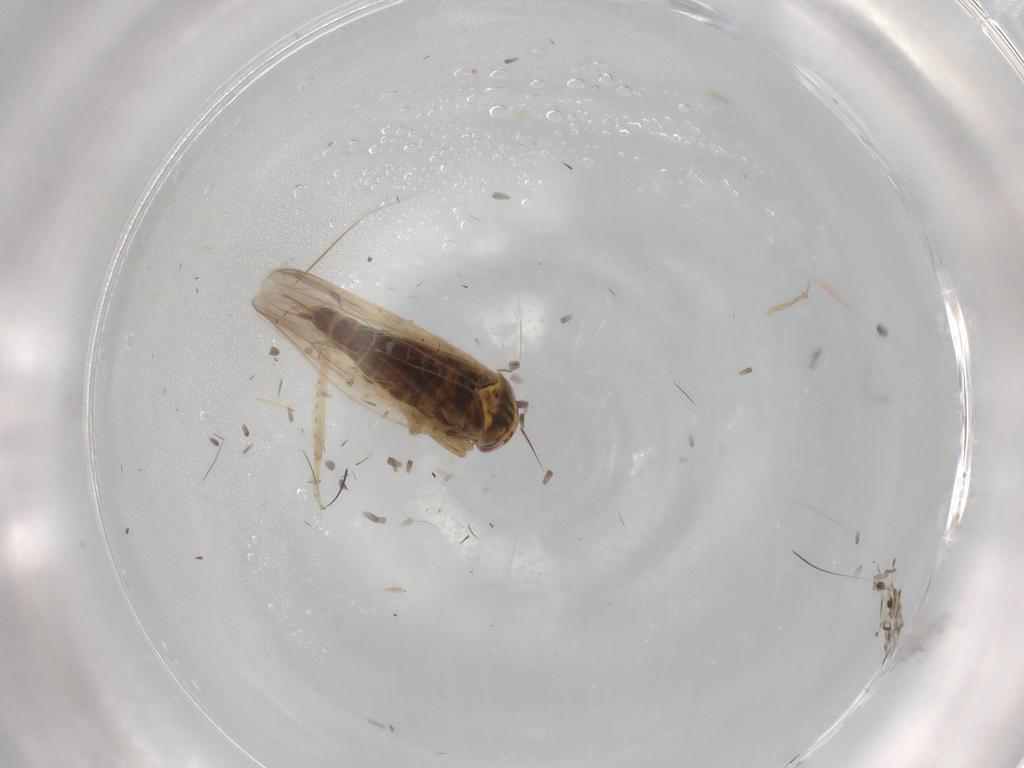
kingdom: Animalia
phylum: Arthropoda
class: Insecta
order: Hemiptera
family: Cicadellidae
